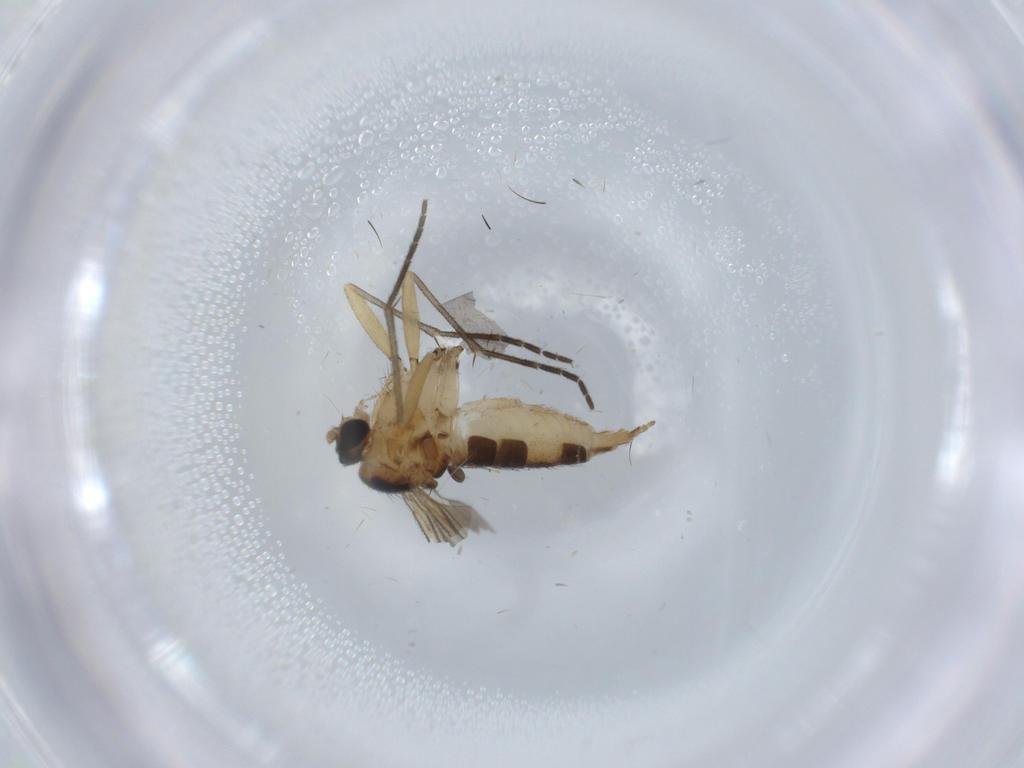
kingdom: Animalia
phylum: Arthropoda
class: Insecta
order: Diptera
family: Sciaridae
